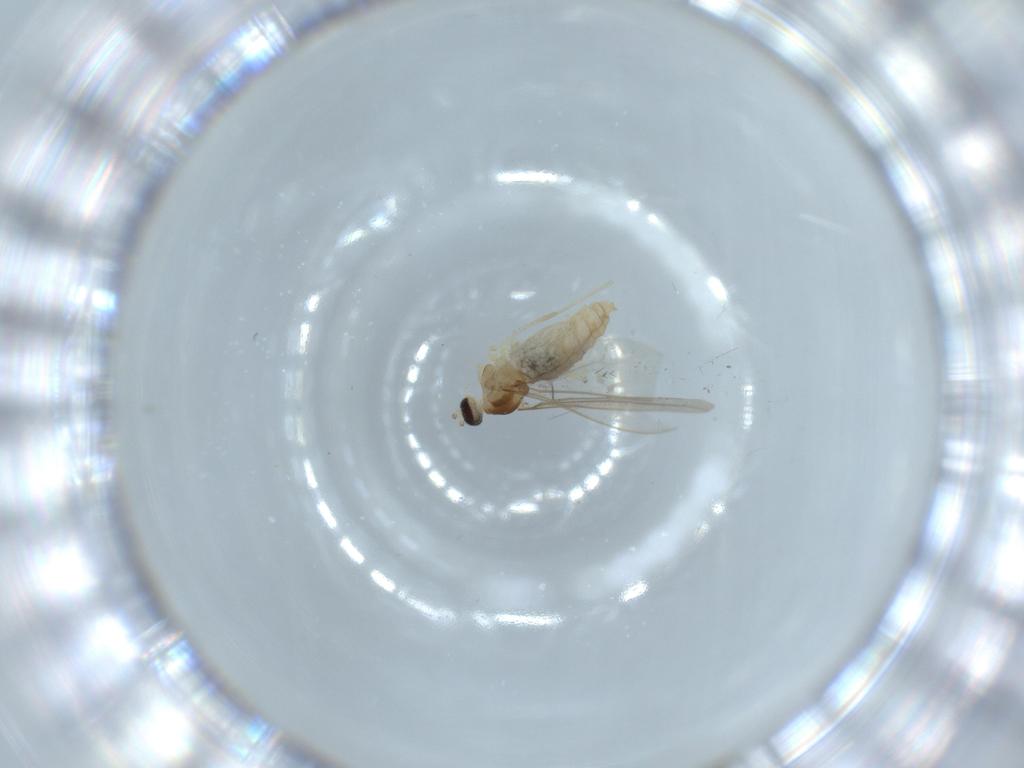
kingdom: Animalia
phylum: Arthropoda
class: Insecta
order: Diptera
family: Cecidomyiidae
